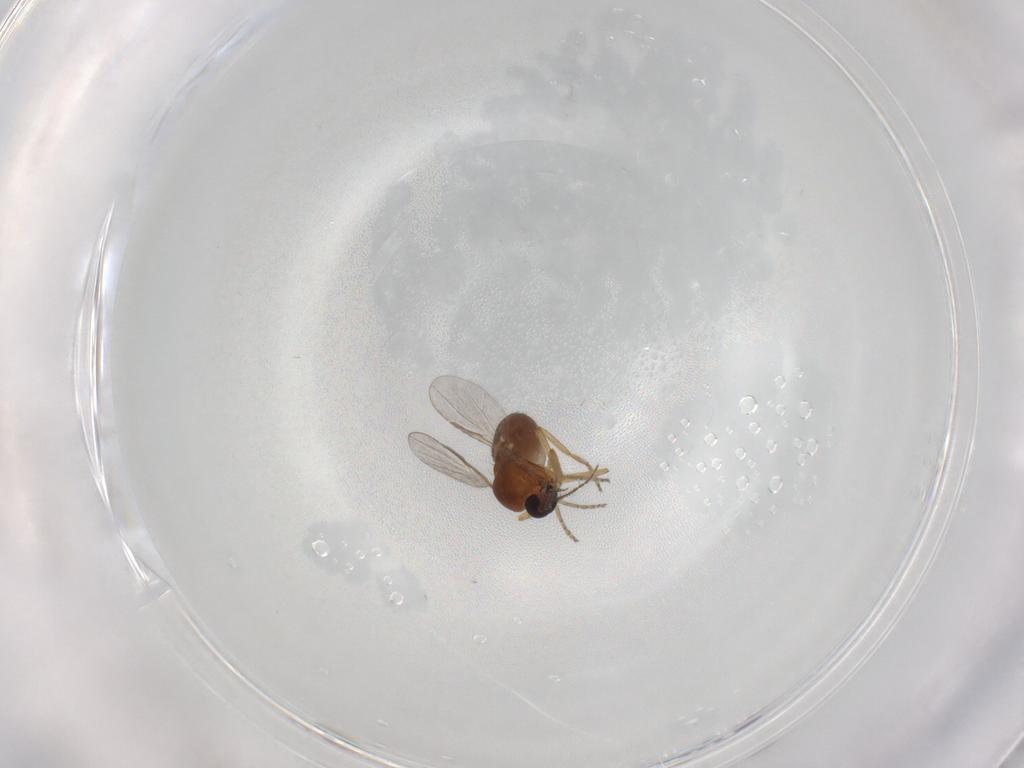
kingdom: Animalia
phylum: Arthropoda
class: Insecta
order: Diptera
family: Ceratopogonidae
